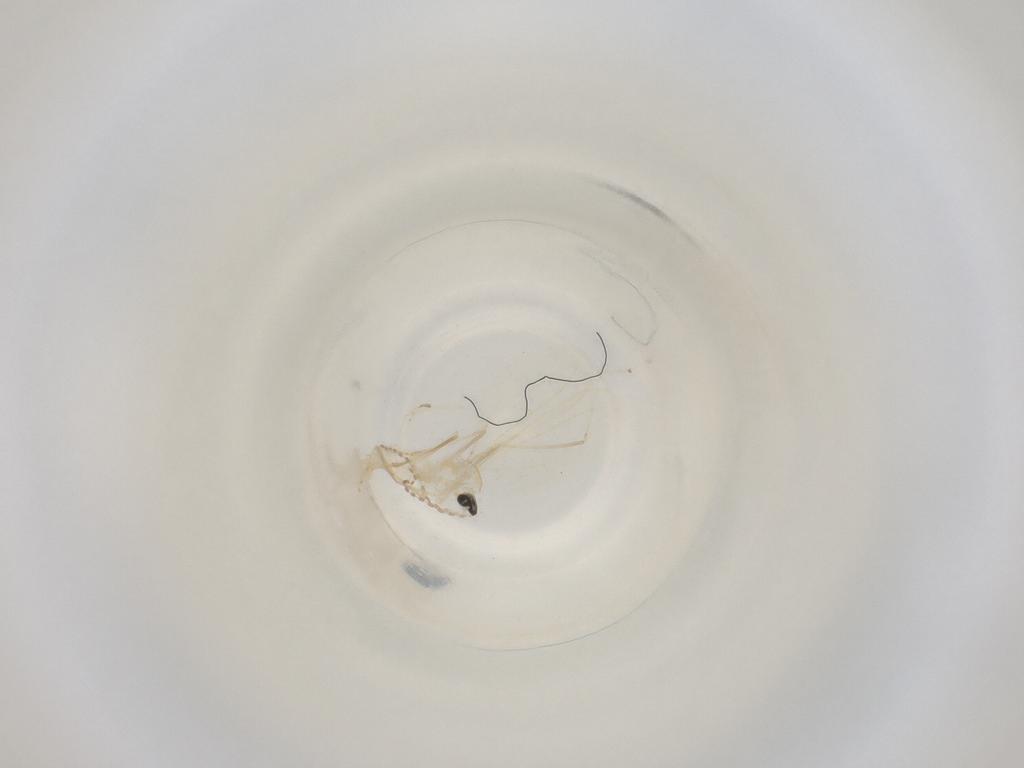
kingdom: Animalia
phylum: Arthropoda
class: Insecta
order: Diptera
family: Cecidomyiidae
